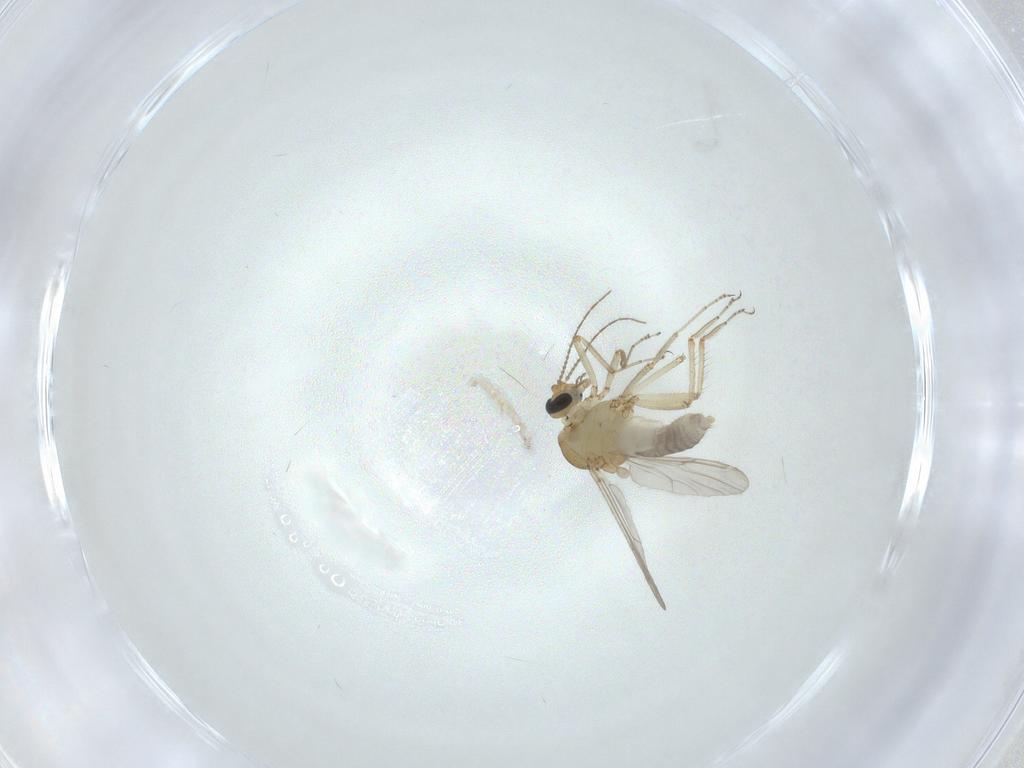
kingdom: Animalia
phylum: Arthropoda
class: Insecta
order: Diptera
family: Ceratopogonidae
